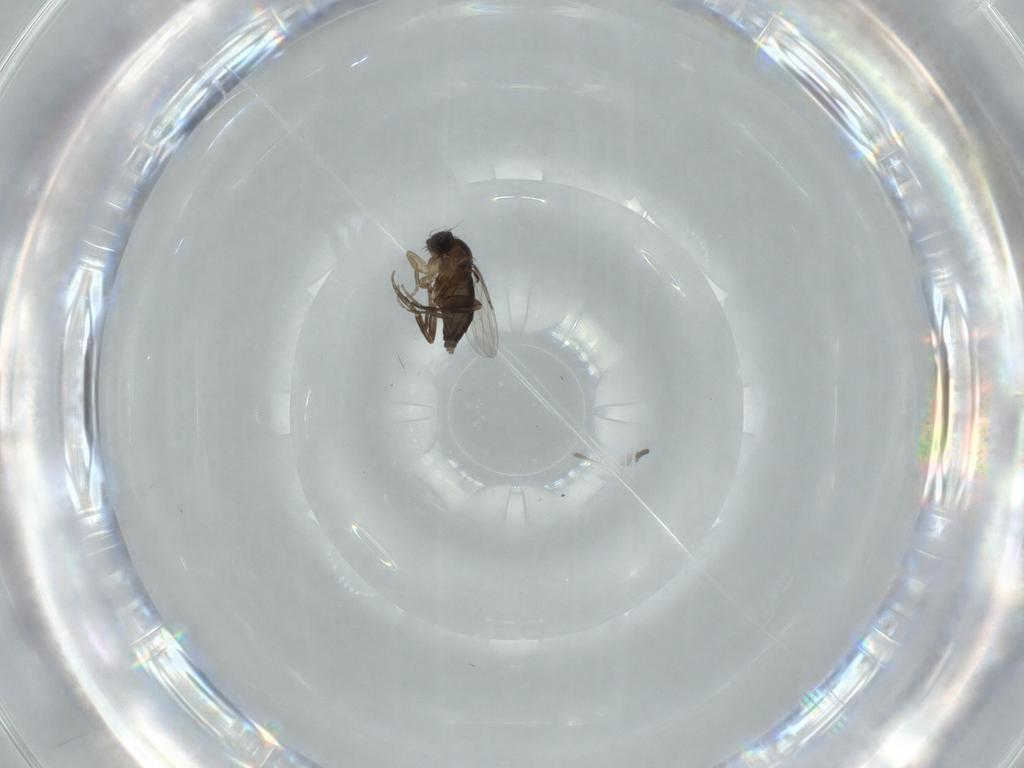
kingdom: Animalia
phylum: Arthropoda
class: Insecta
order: Diptera
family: Phoridae
